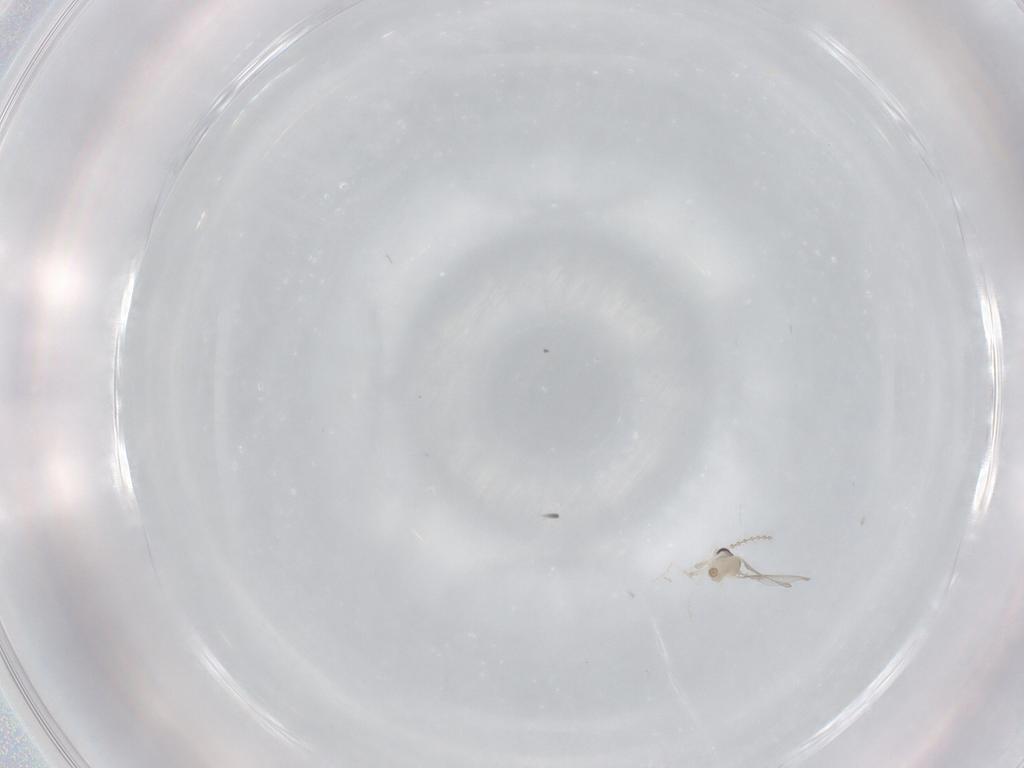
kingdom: Animalia
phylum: Arthropoda
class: Insecta
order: Diptera
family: Cecidomyiidae
